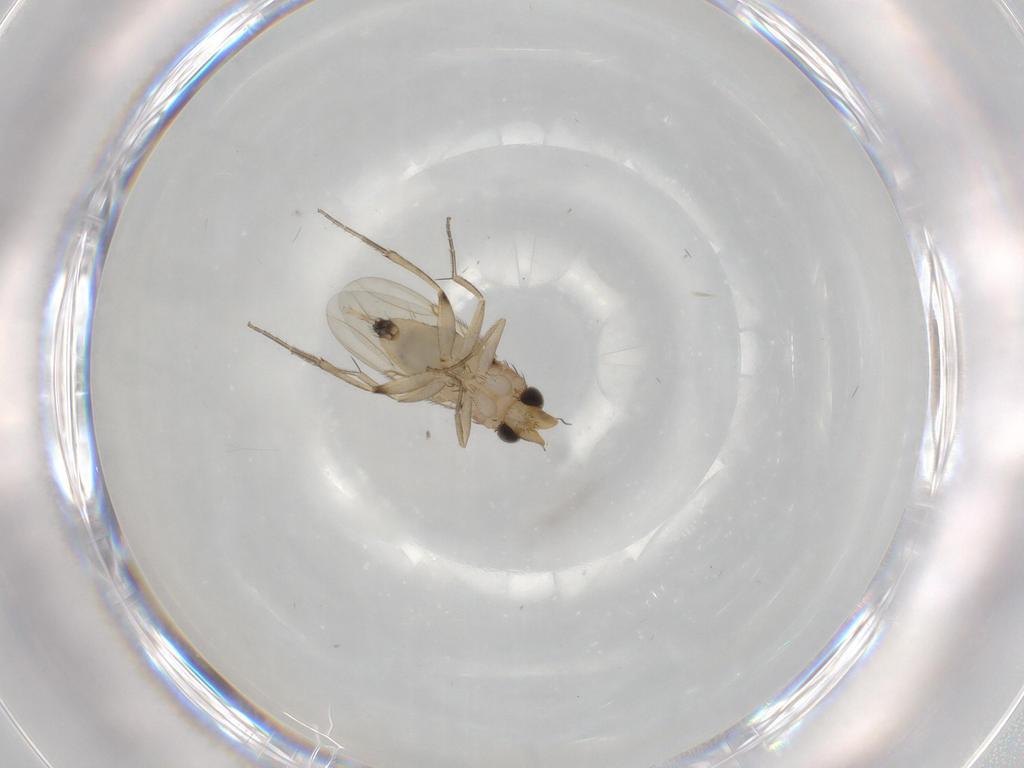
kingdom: Animalia
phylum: Arthropoda
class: Insecta
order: Diptera
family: Phoridae
